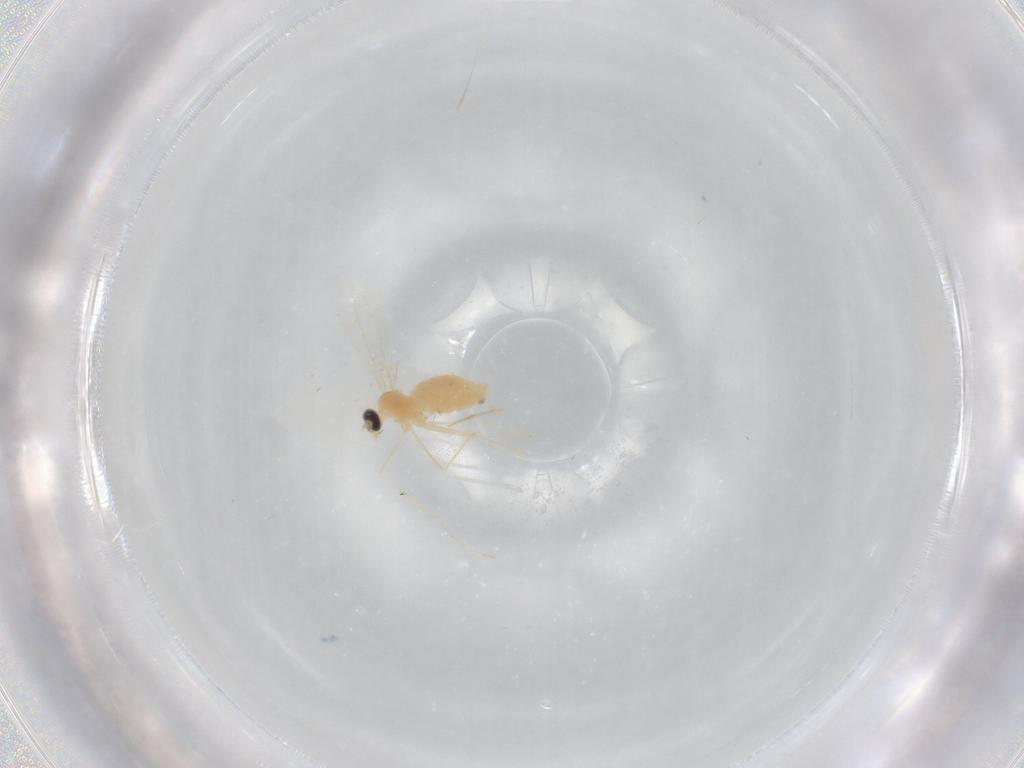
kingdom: Animalia
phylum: Arthropoda
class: Insecta
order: Diptera
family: Cecidomyiidae
